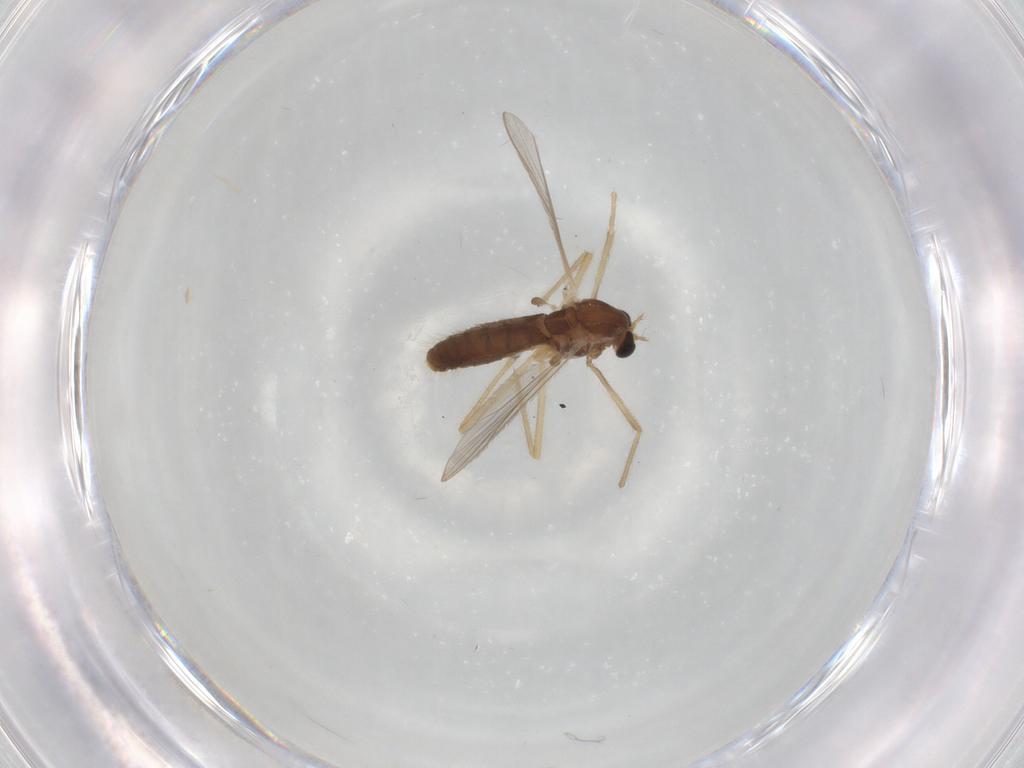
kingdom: Animalia
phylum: Arthropoda
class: Insecta
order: Diptera
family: Chironomidae
